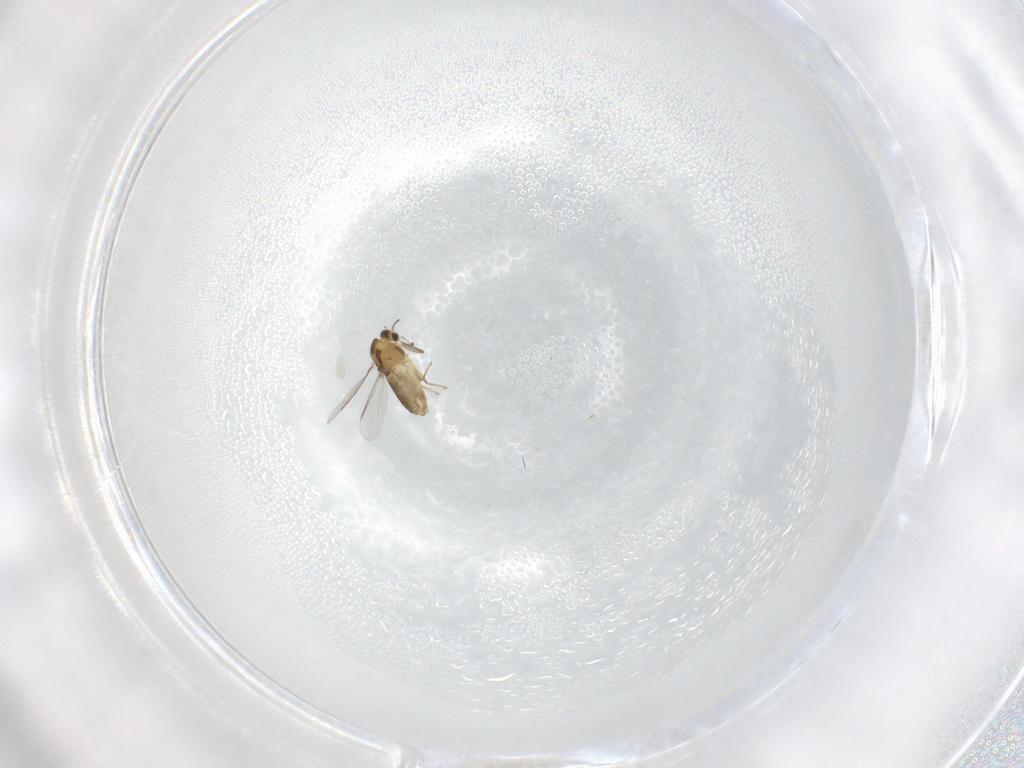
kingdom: Animalia
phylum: Arthropoda
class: Insecta
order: Diptera
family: Chironomidae
